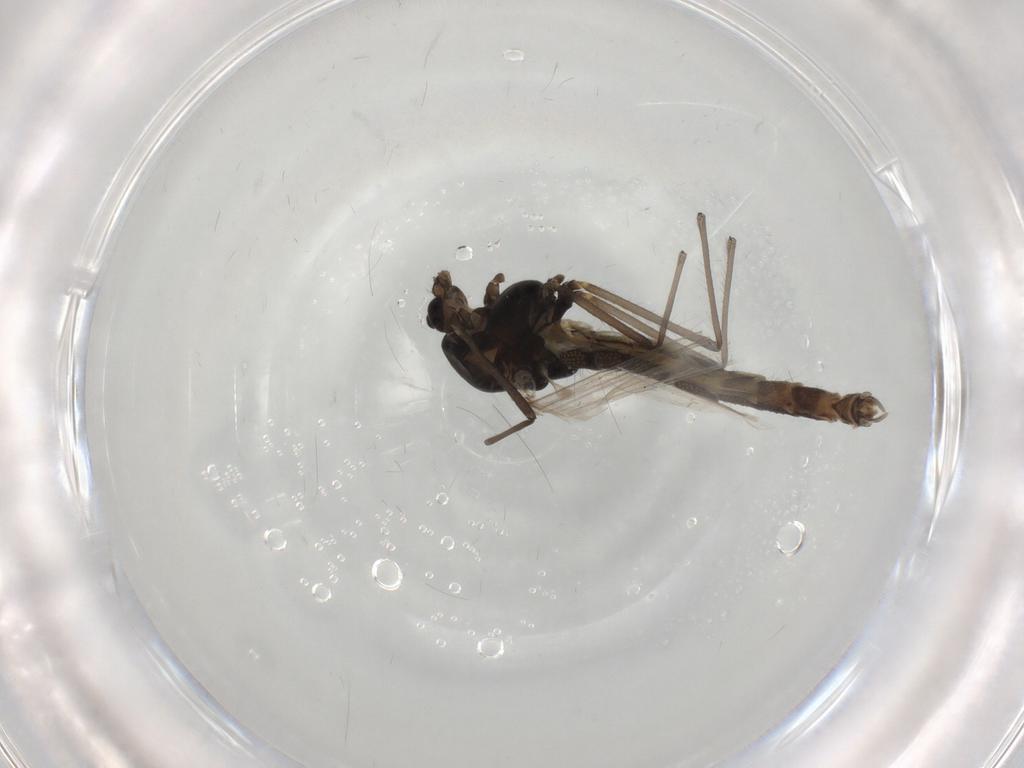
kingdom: Animalia
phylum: Arthropoda
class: Insecta
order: Diptera
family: Chironomidae
